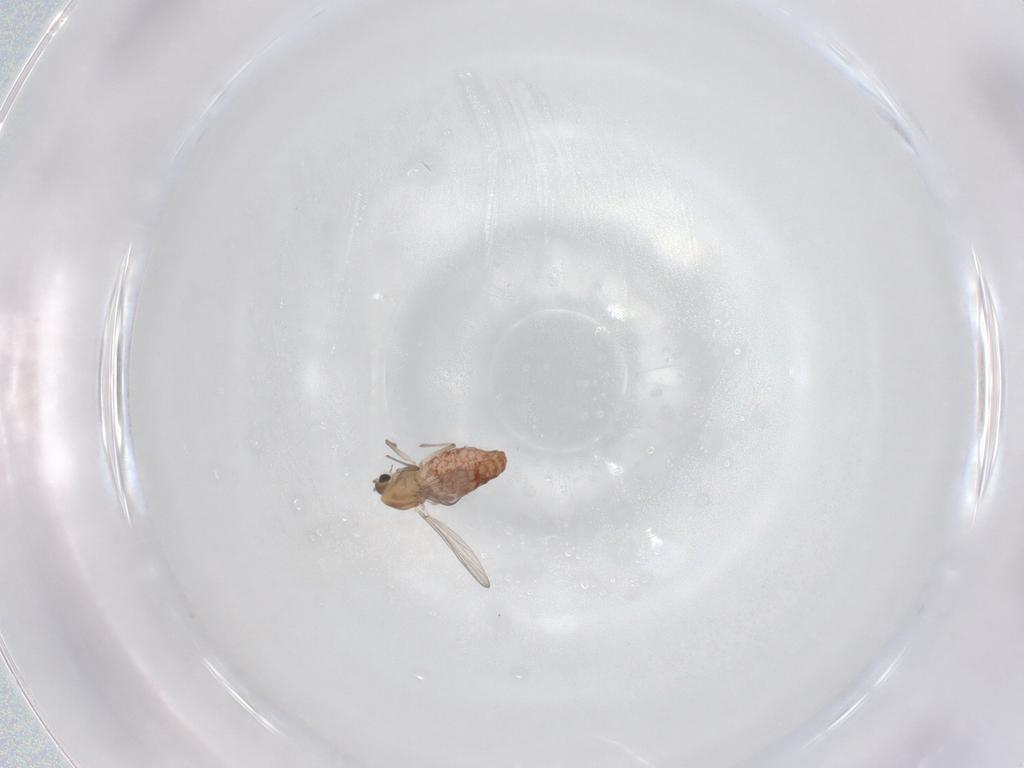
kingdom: Animalia
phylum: Arthropoda
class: Insecta
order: Diptera
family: Chironomidae
